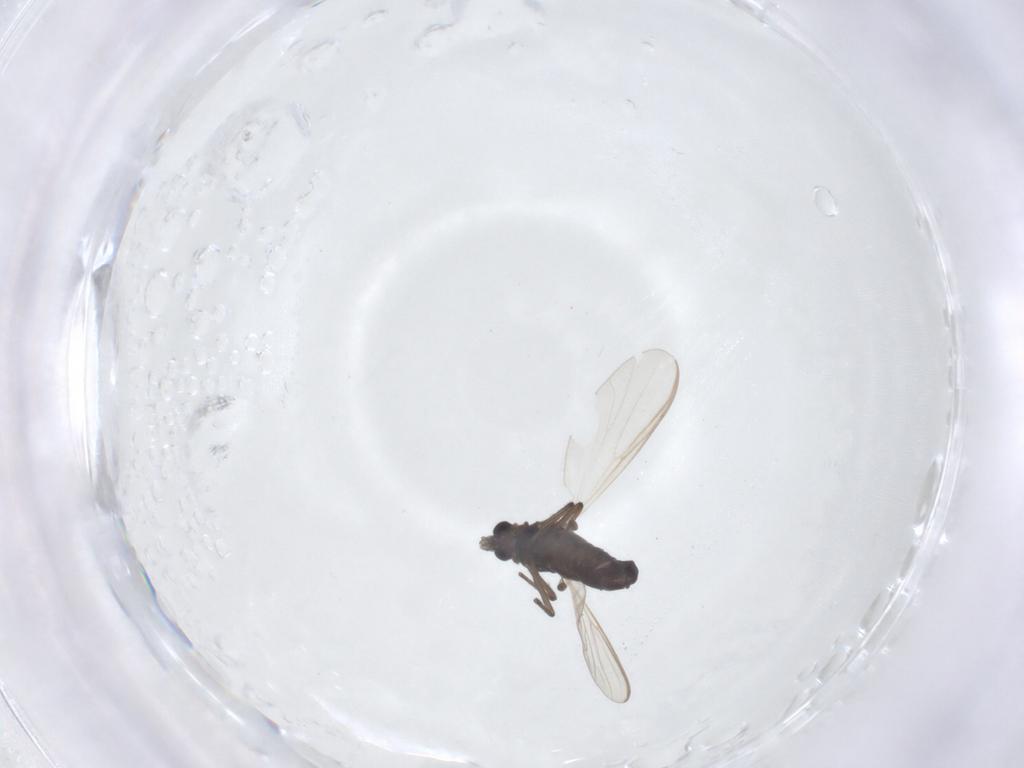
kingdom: Animalia
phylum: Arthropoda
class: Insecta
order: Diptera
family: Chironomidae
